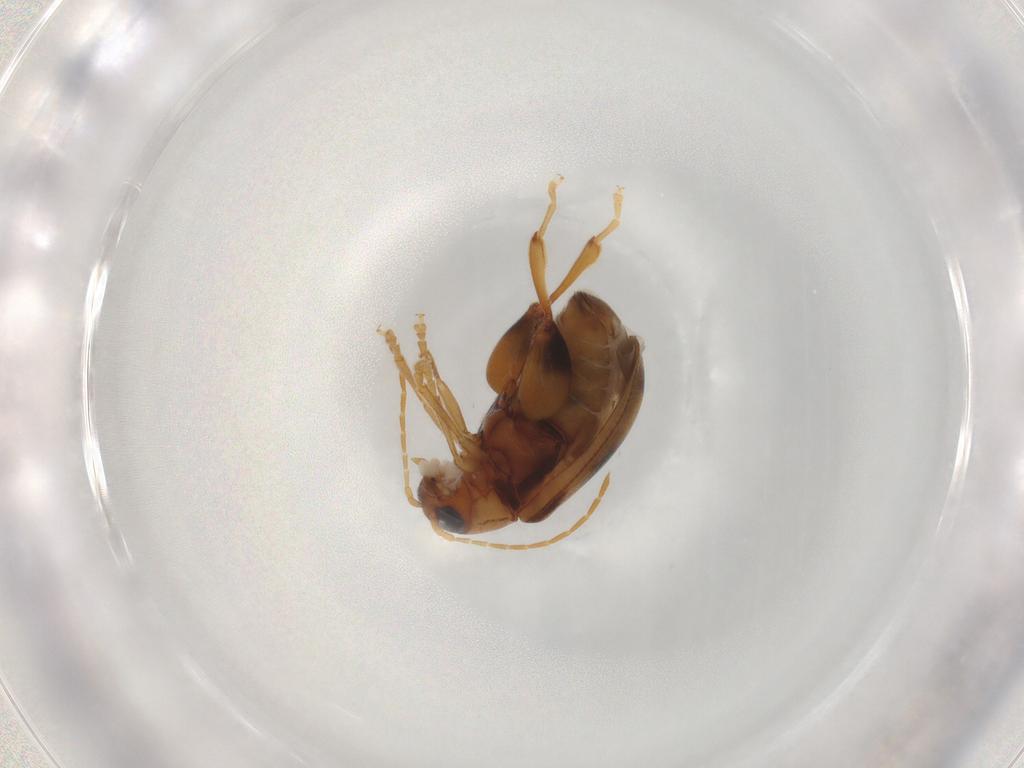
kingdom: Animalia
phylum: Arthropoda
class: Insecta
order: Coleoptera
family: Chrysomelidae
